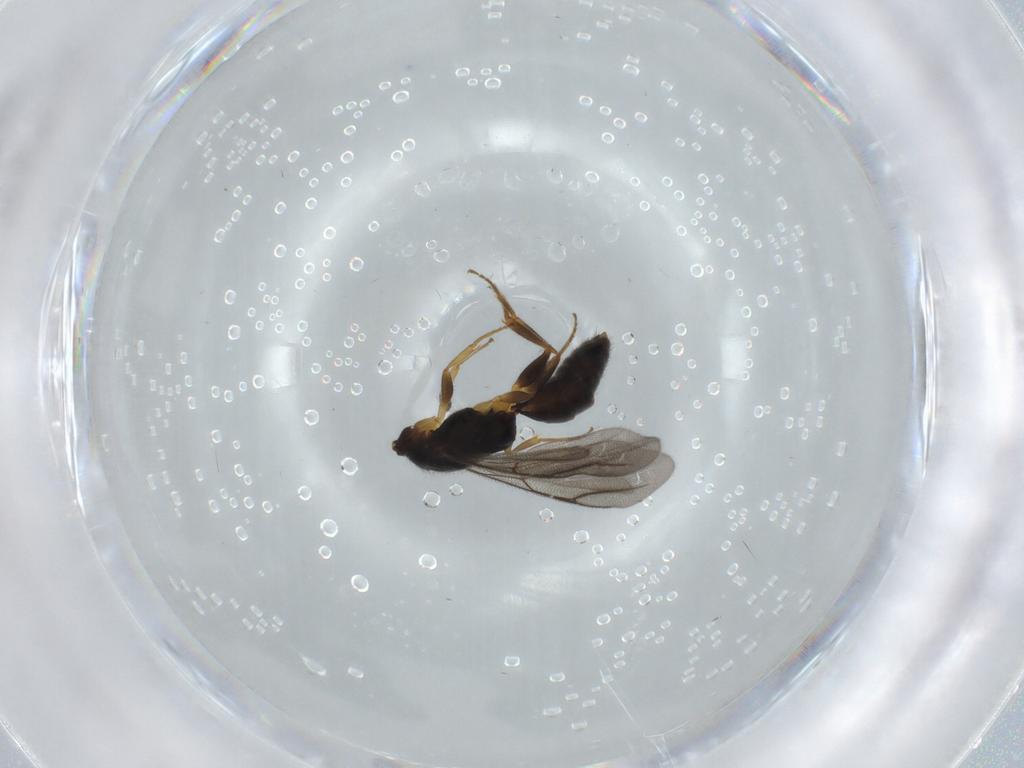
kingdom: Animalia
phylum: Arthropoda
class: Insecta
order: Hymenoptera
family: Bethylidae
